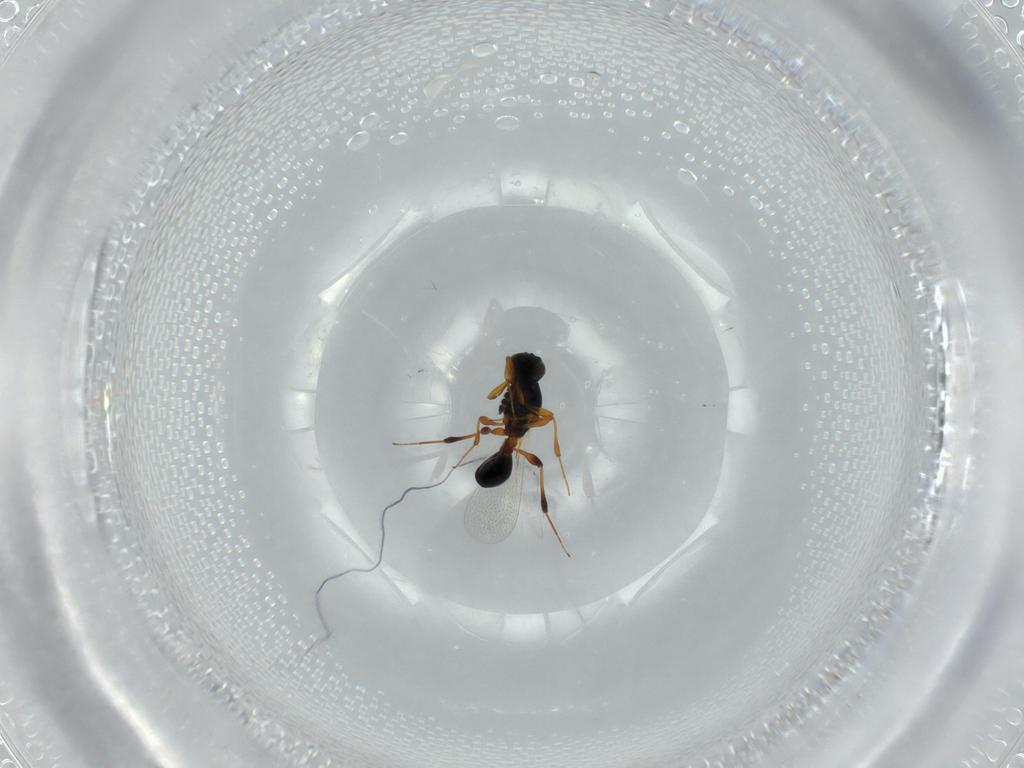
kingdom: Animalia
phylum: Arthropoda
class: Insecta
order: Hymenoptera
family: Platygastridae
